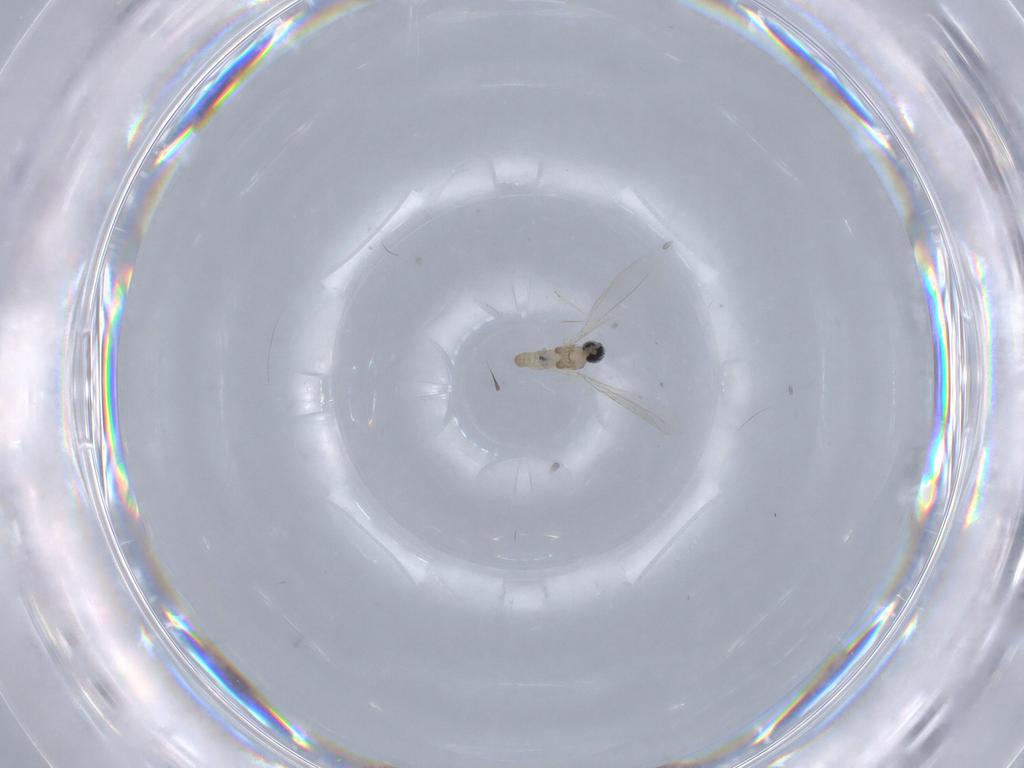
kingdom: Animalia
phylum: Arthropoda
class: Insecta
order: Diptera
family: Cecidomyiidae
